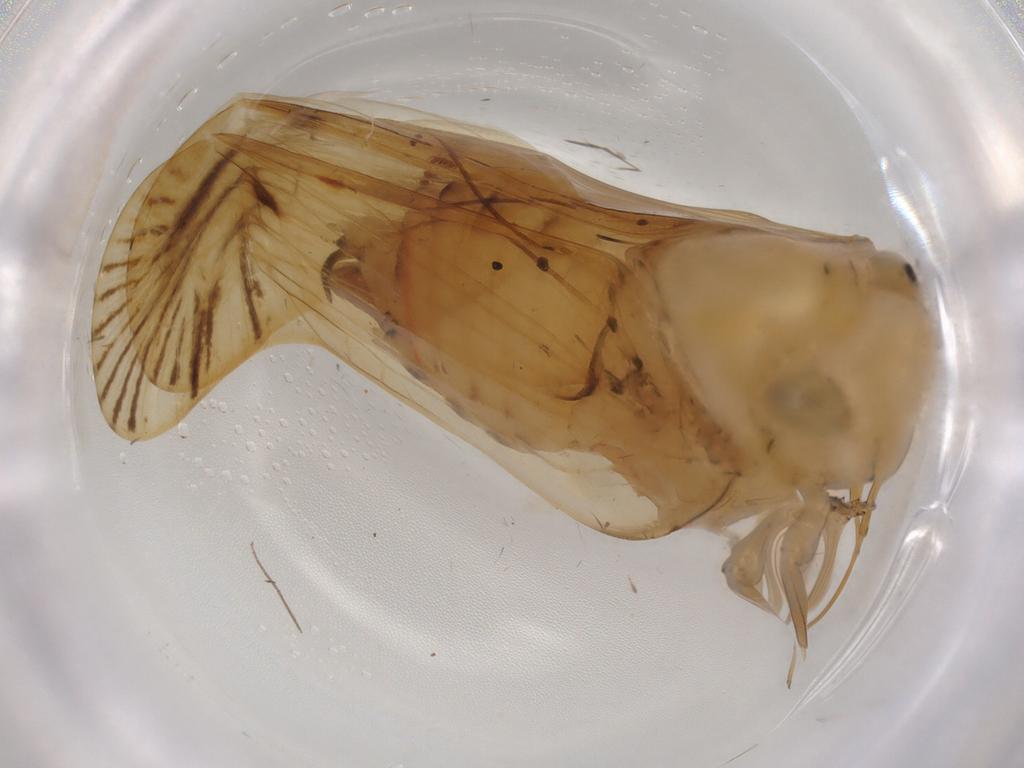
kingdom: Animalia
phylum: Arthropoda
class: Insecta
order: Hemiptera
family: Nogodinidae
